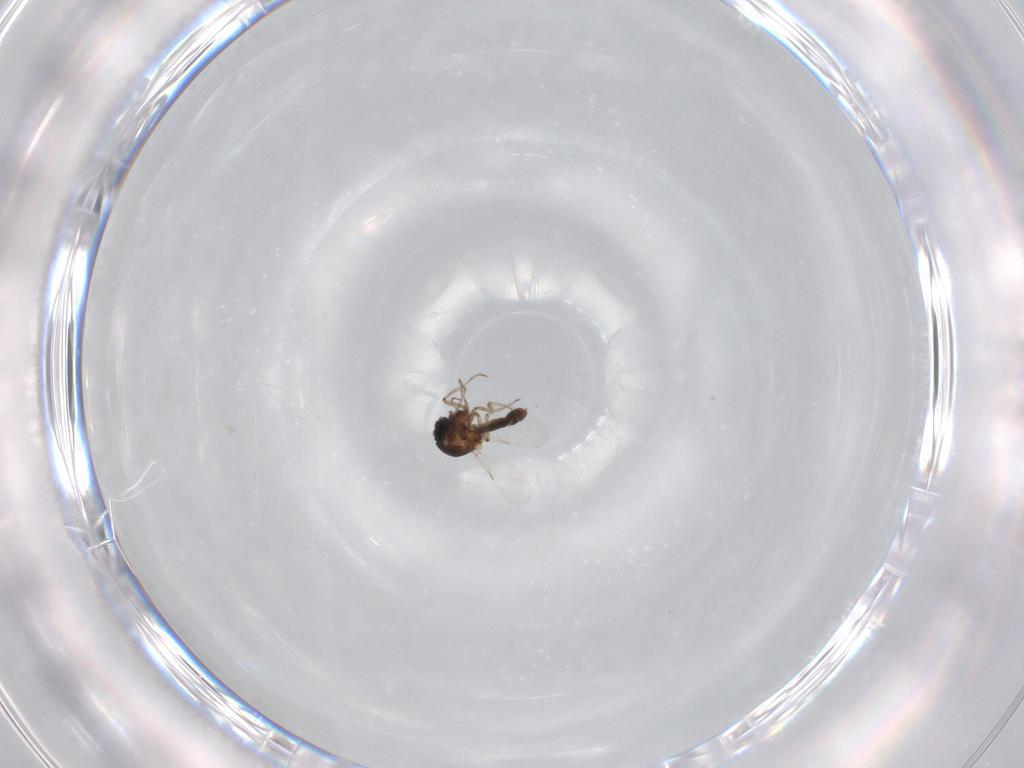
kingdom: Animalia
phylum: Arthropoda
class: Insecta
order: Diptera
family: Ceratopogonidae
